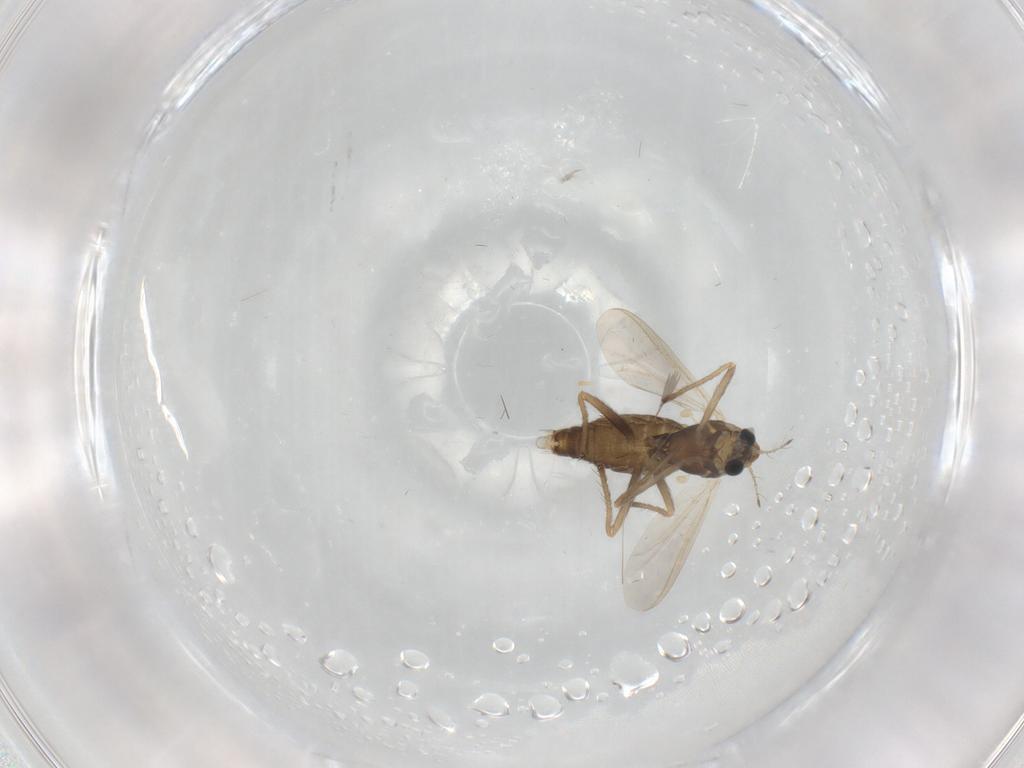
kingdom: Animalia
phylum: Arthropoda
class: Insecta
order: Diptera
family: Chironomidae
